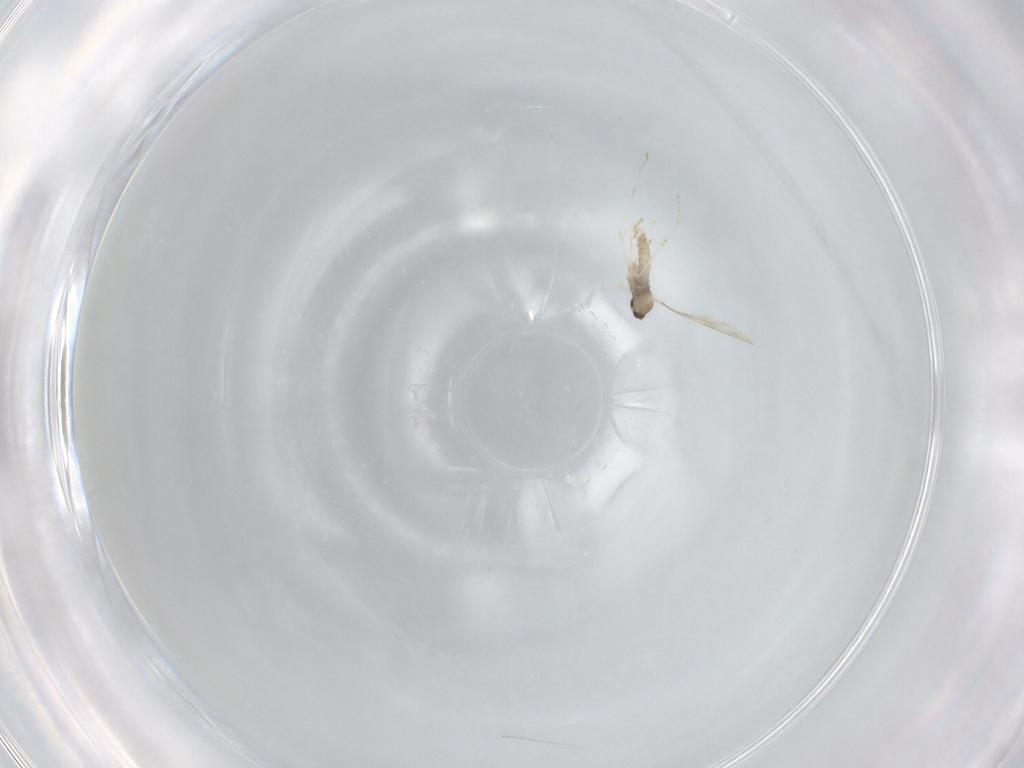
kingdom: Animalia
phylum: Arthropoda
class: Insecta
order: Diptera
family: Cecidomyiidae
